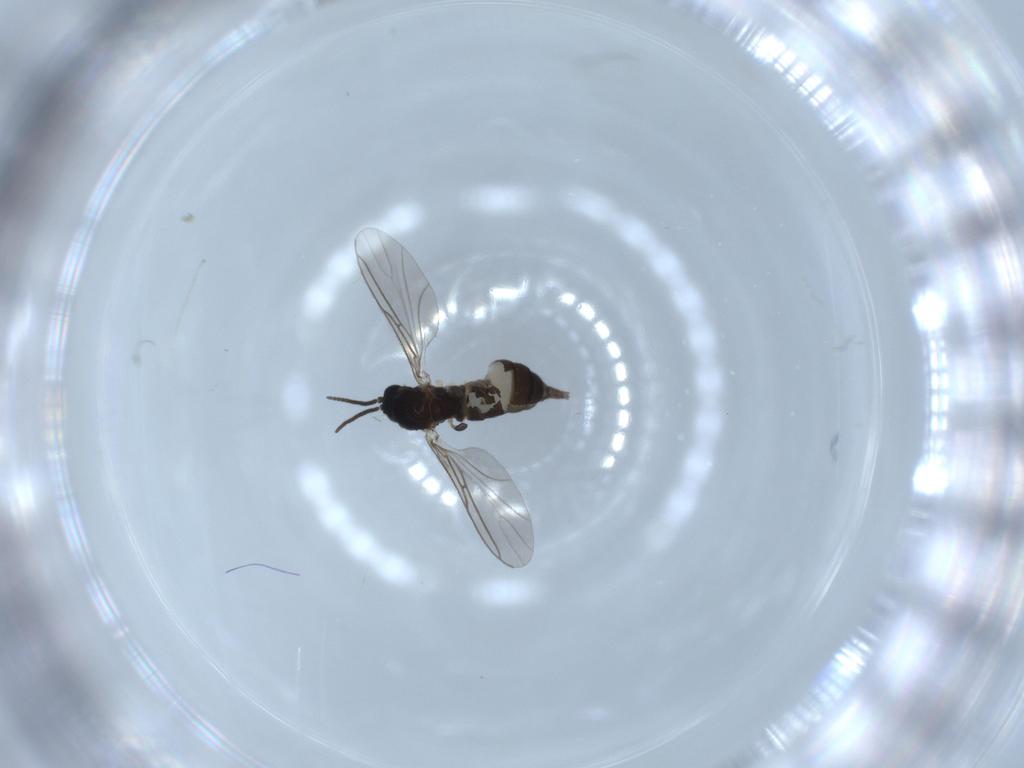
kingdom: Animalia
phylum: Arthropoda
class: Insecta
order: Diptera
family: Sciaridae
